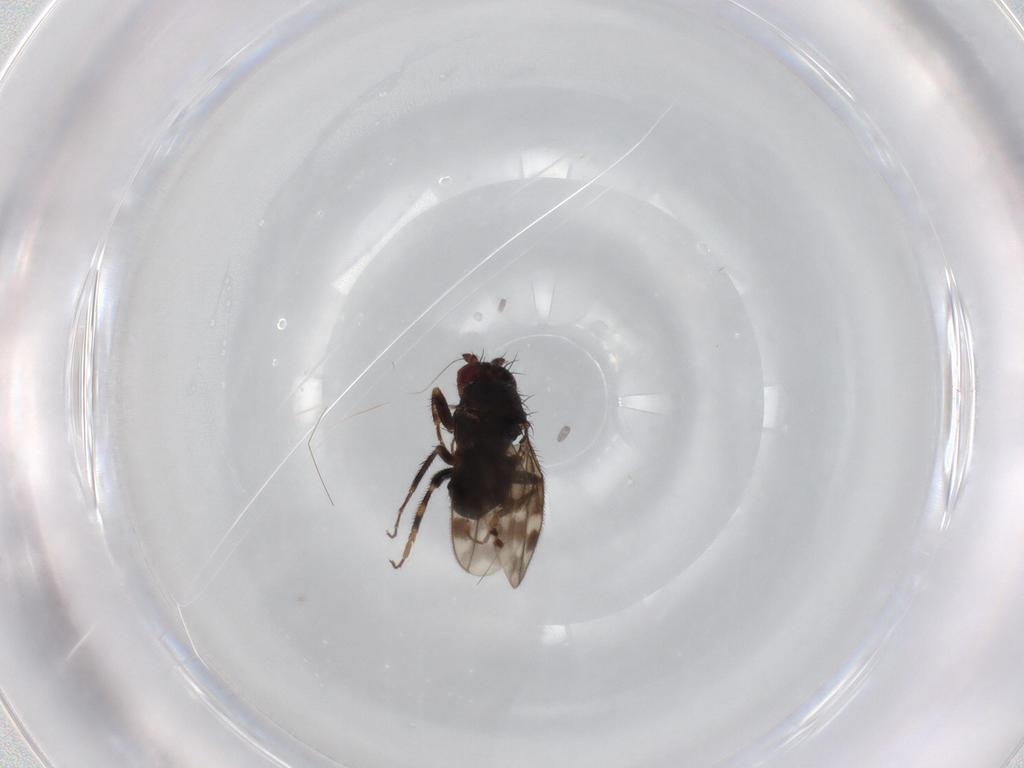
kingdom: Animalia
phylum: Arthropoda
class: Insecta
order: Diptera
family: Sphaeroceridae
